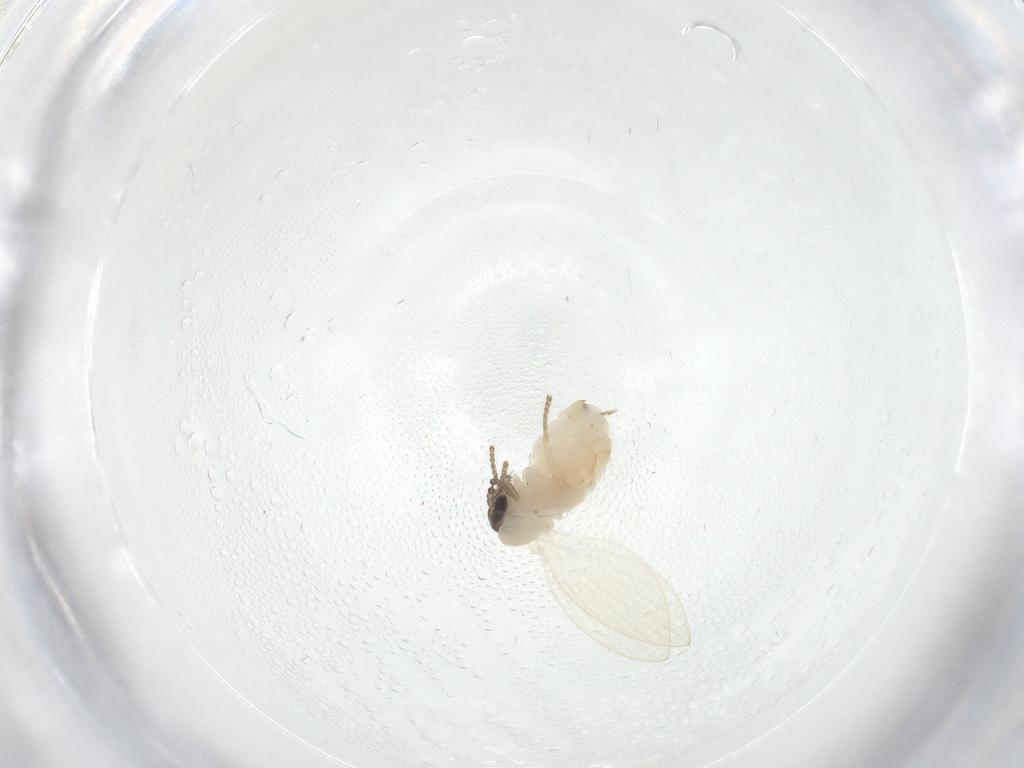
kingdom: Animalia
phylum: Arthropoda
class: Insecta
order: Diptera
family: Psychodidae
